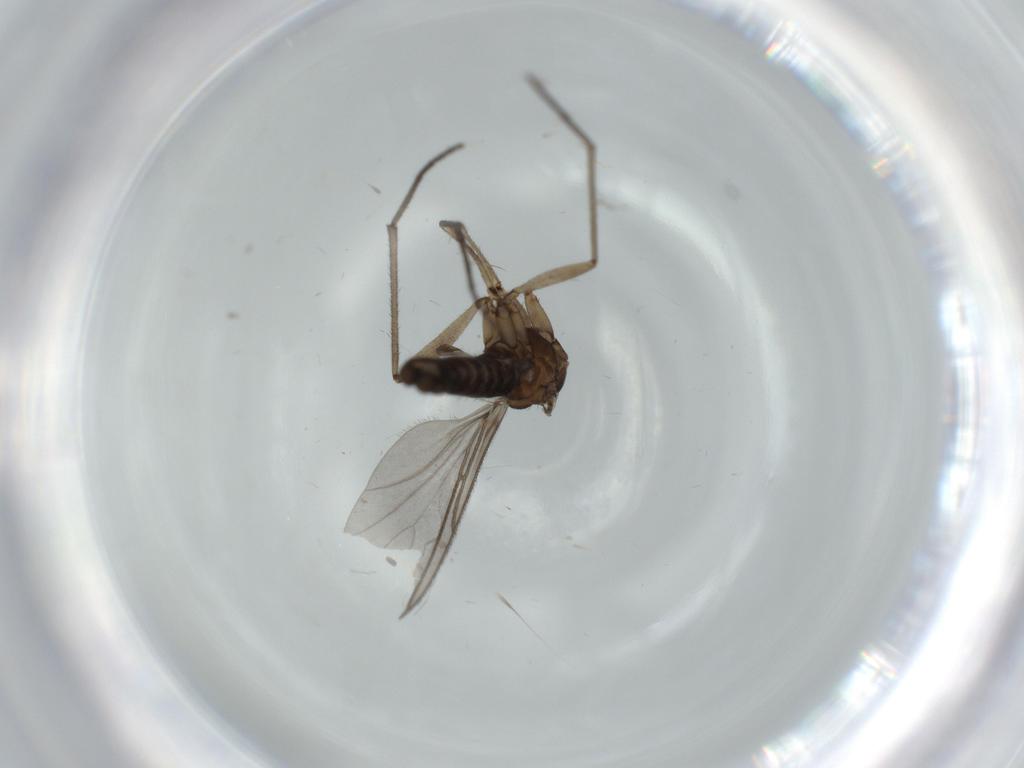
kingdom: Animalia
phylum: Arthropoda
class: Insecta
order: Diptera
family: Sciaridae
